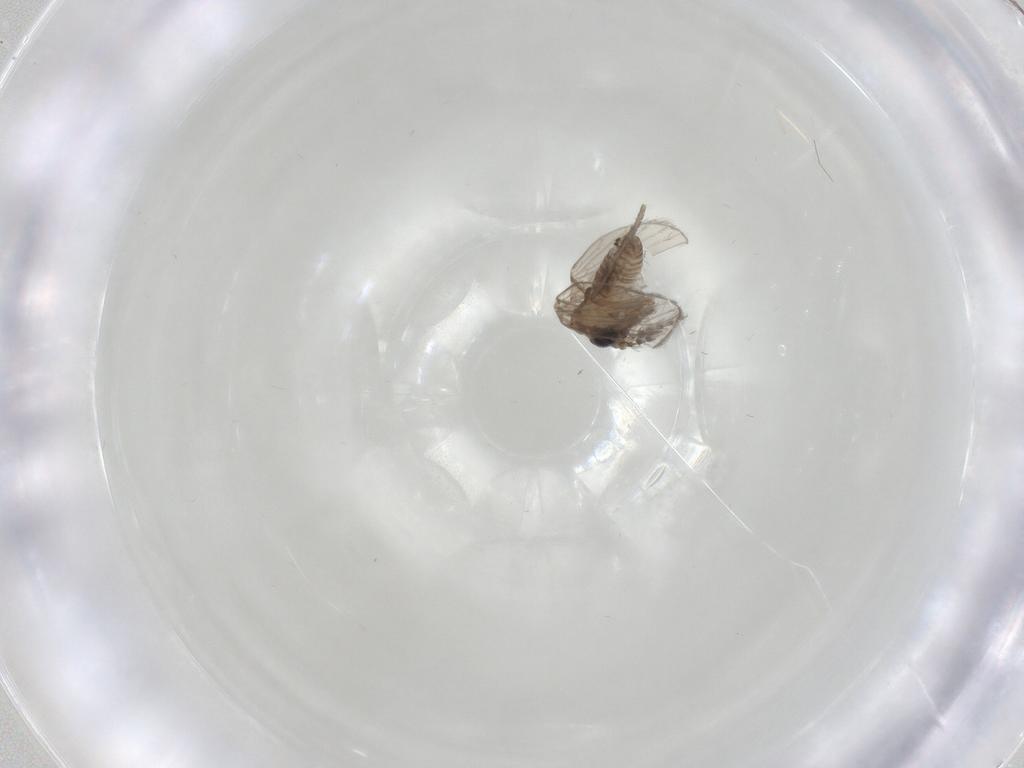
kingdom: Animalia
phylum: Arthropoda
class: Insecta
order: Diptera
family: Psychodidae
